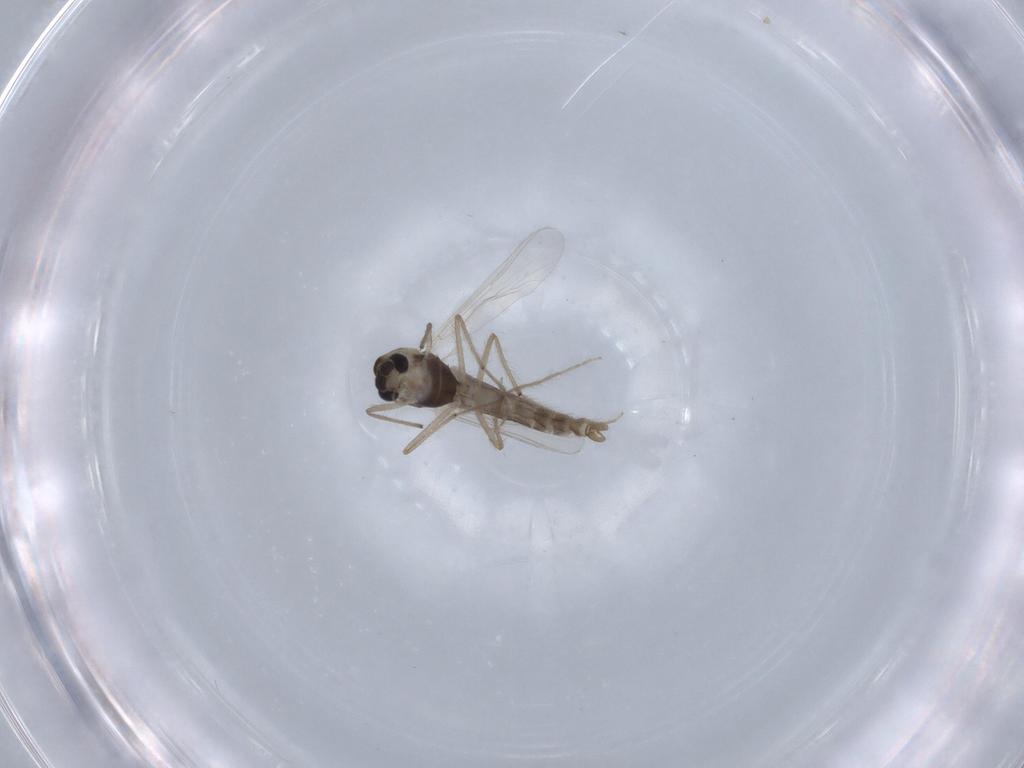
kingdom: Animalia
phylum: Arthropoda
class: Insecta
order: Diptera
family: Chironomidae
